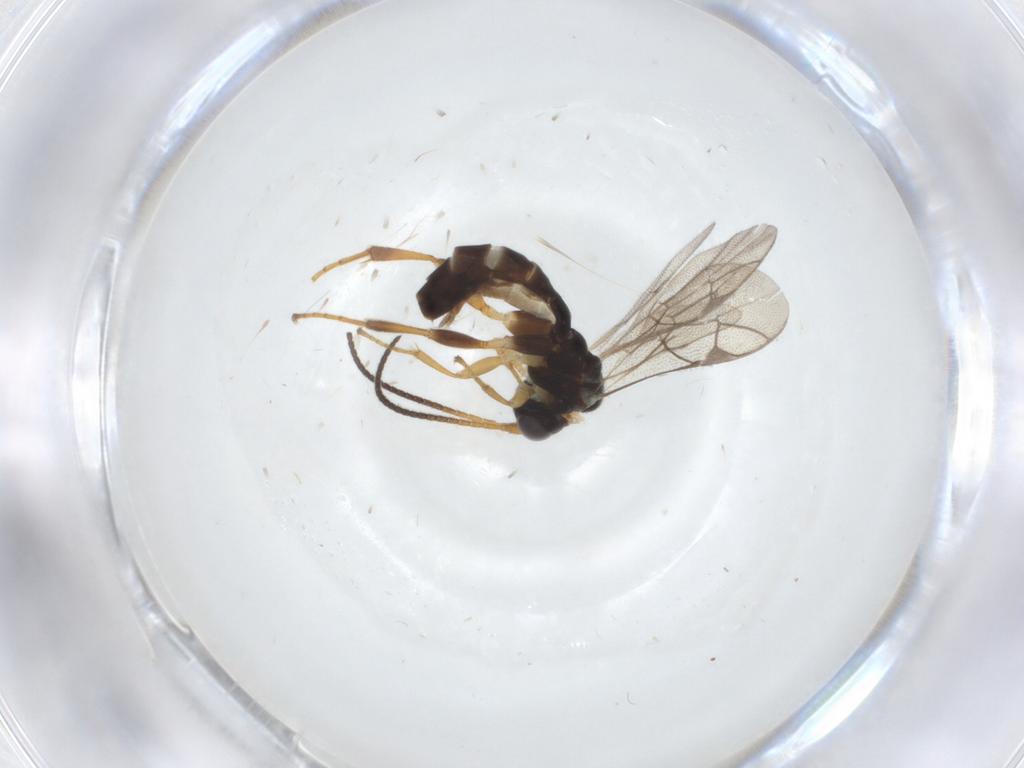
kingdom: Animalia
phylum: Arthropoda
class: Insecta
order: Hymenoptera
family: Ichneumonidae
